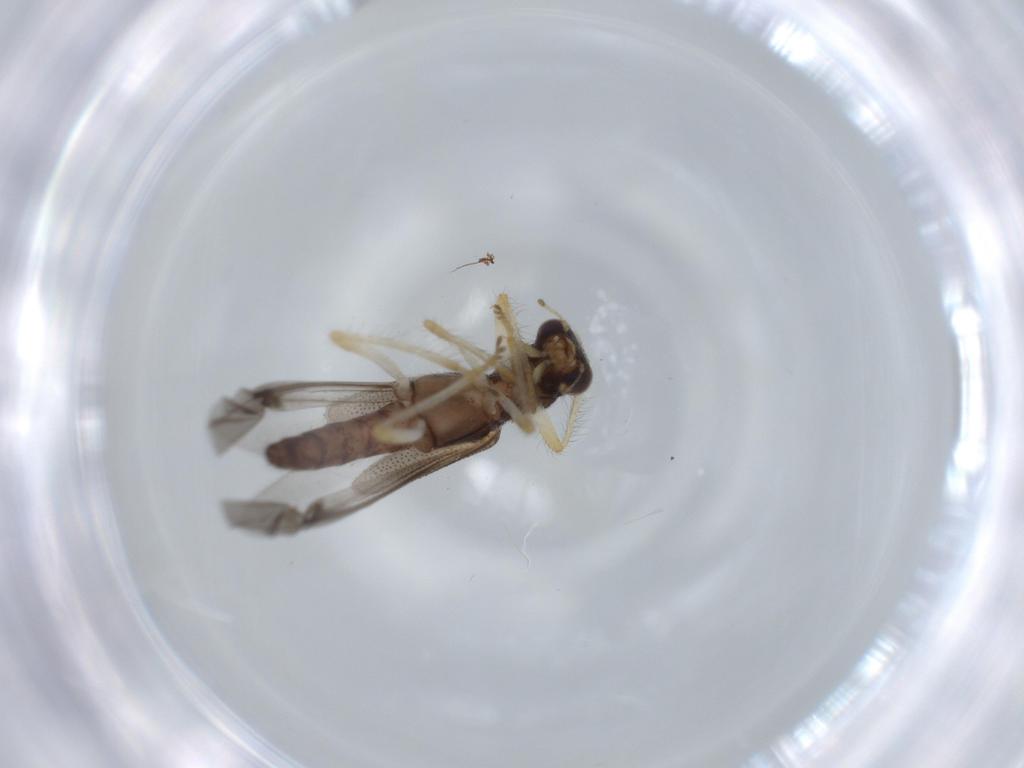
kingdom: Animalia
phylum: Arthropoda
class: Insecta
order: Coleoptera
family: Cleridae
